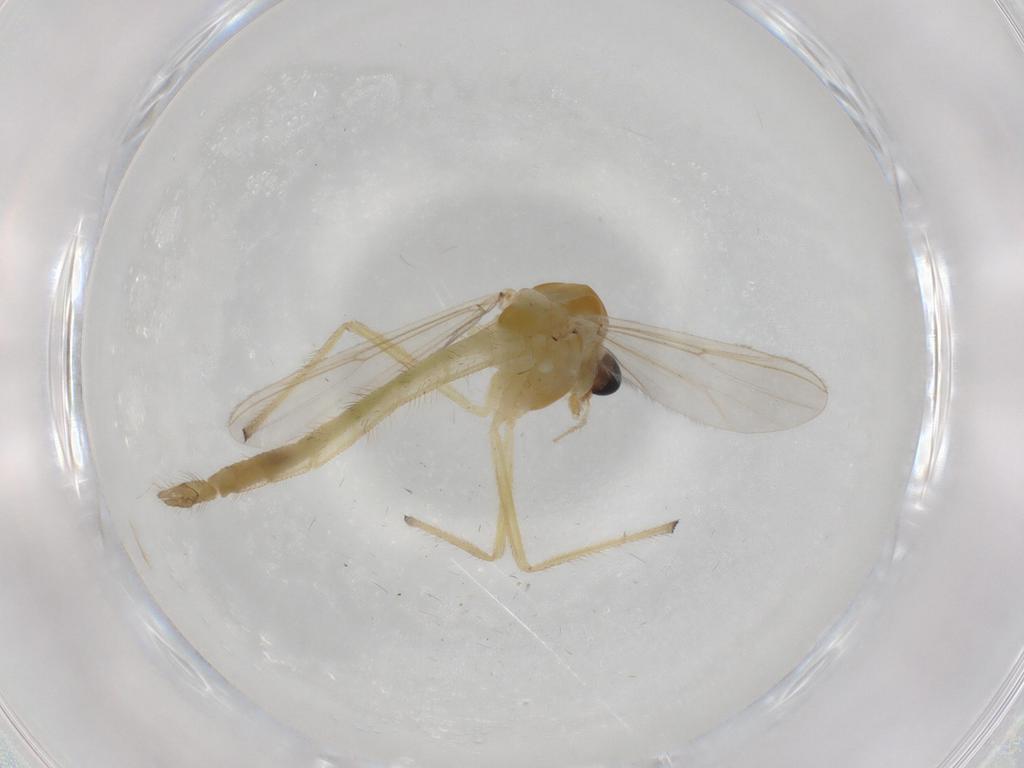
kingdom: Animalia
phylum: Arthropoda
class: Insecta
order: Diptera
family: Chironomidae
